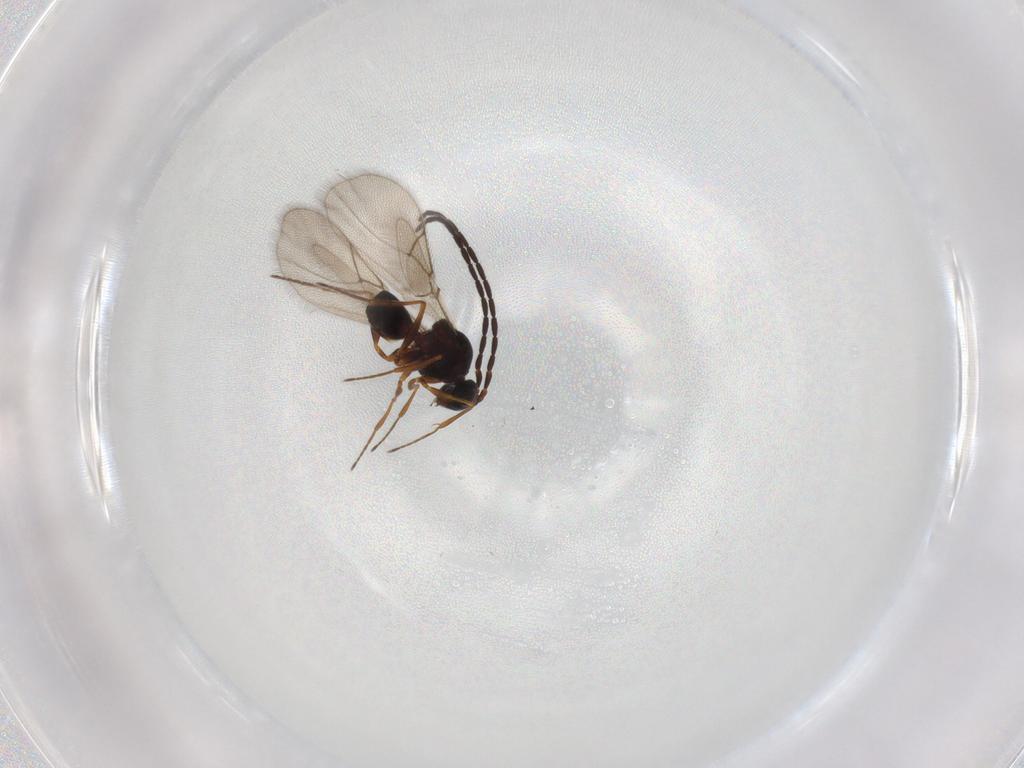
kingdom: Animalia
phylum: Arthropoda
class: Insecta
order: Hymenoptera
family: Figitidae
